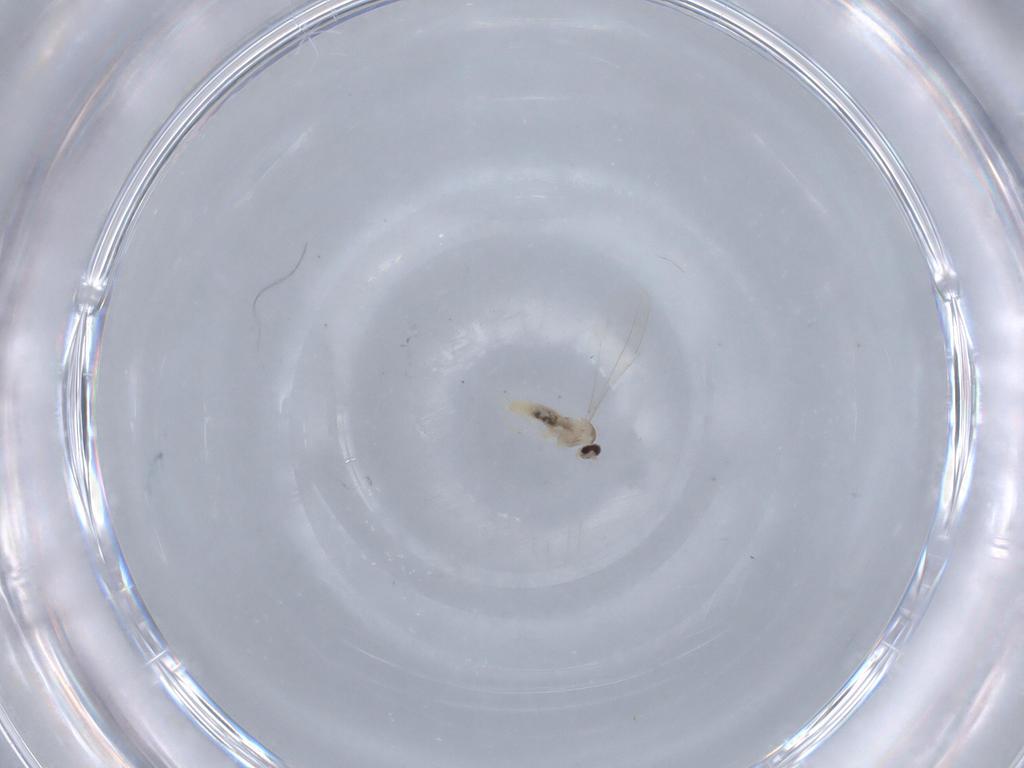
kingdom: Animalia
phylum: Arthropoda
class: Insecta
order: Diptera
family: Cecidomyiidae
